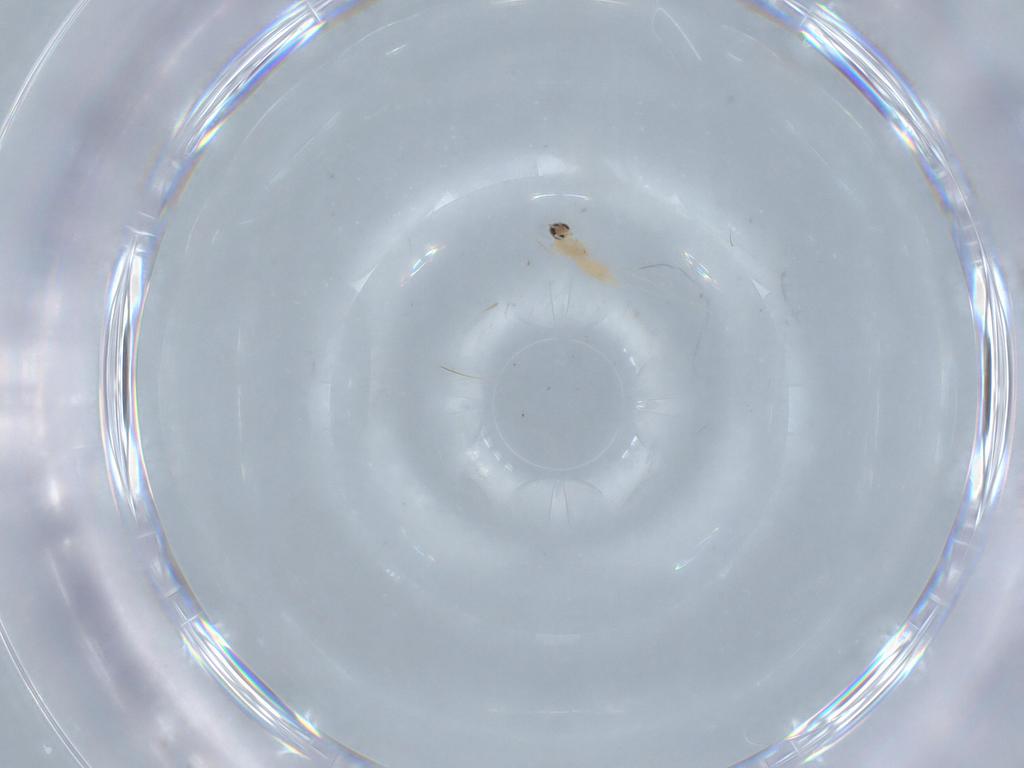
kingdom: Animalia
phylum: Arthropoda
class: Insecta
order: Diptera
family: Cecidomyiidae
